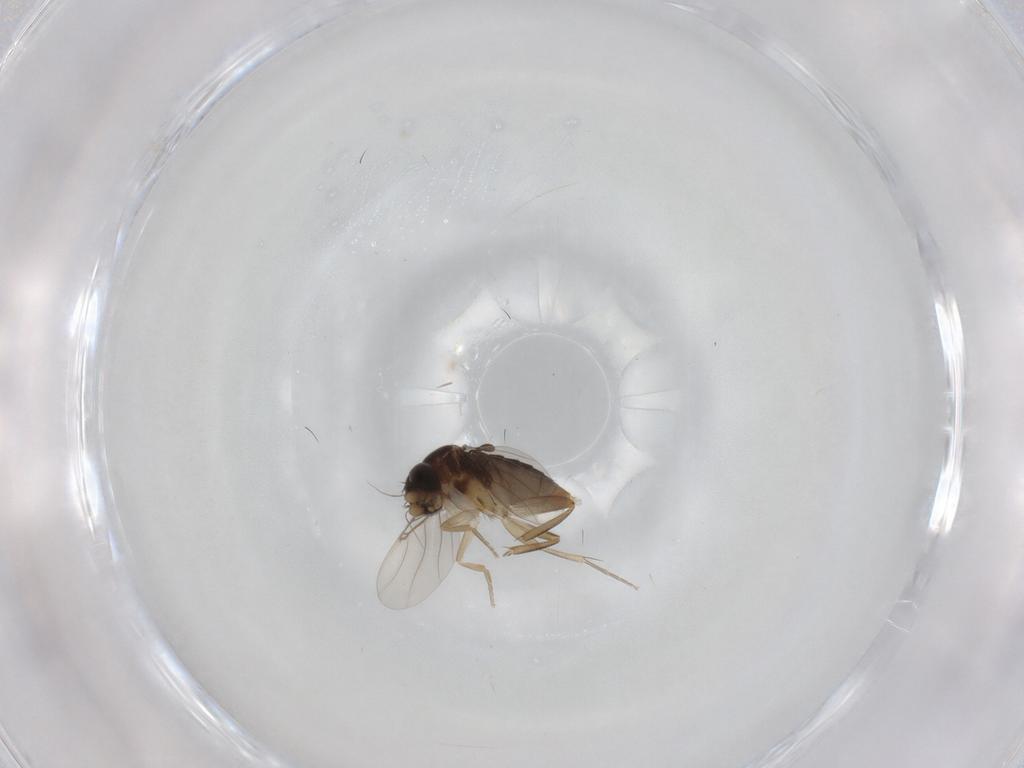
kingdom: Animalia
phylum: Arthropoda
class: Insecta
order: Diptera
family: Phoridae
